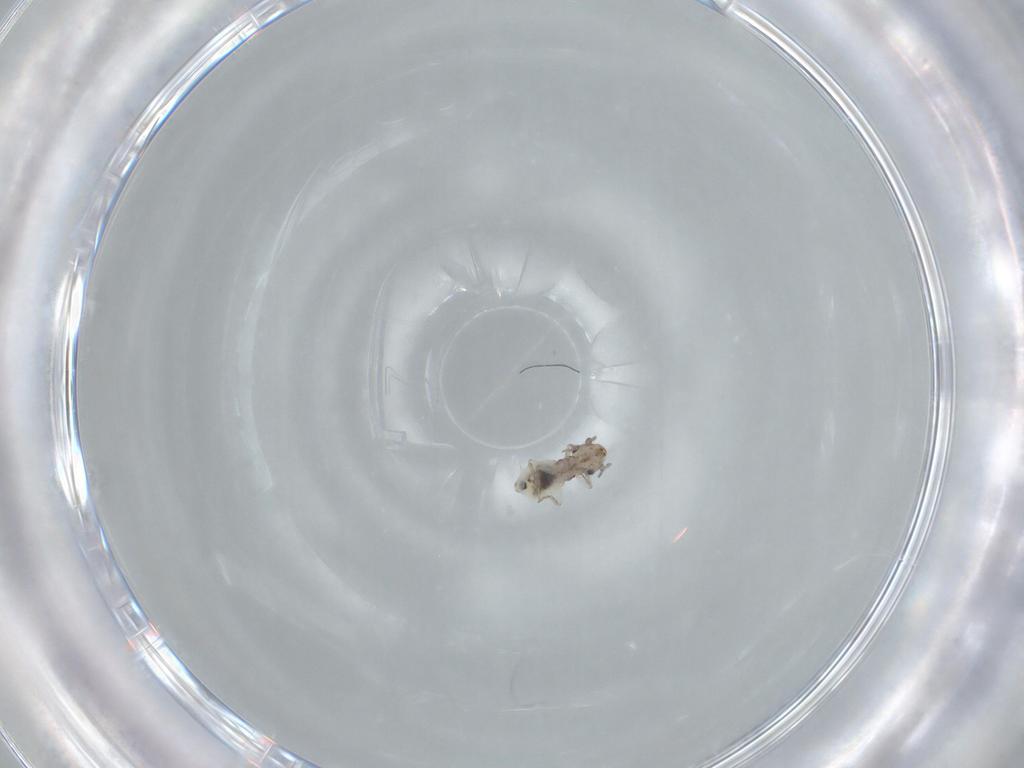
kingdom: Animalia
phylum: Arthropoda
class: Insecta
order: Psocodea
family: Lepidopsocidae
